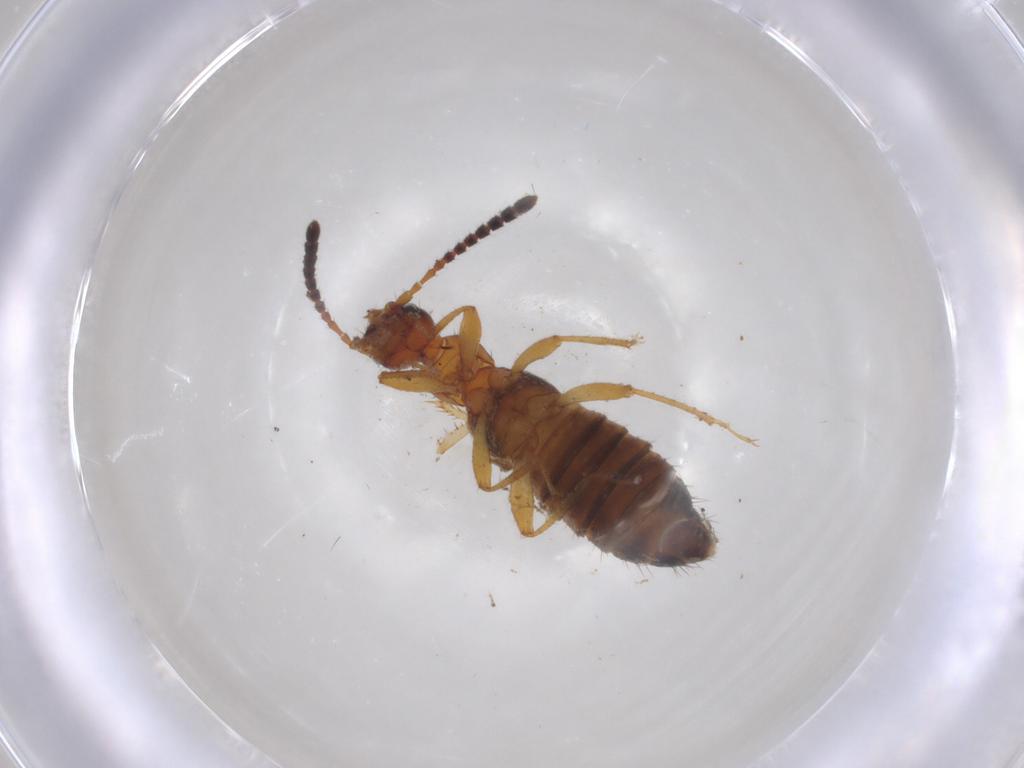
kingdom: Animalia
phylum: Arthropoda
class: Insecta
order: Coleoptera
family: Staphylinidae
